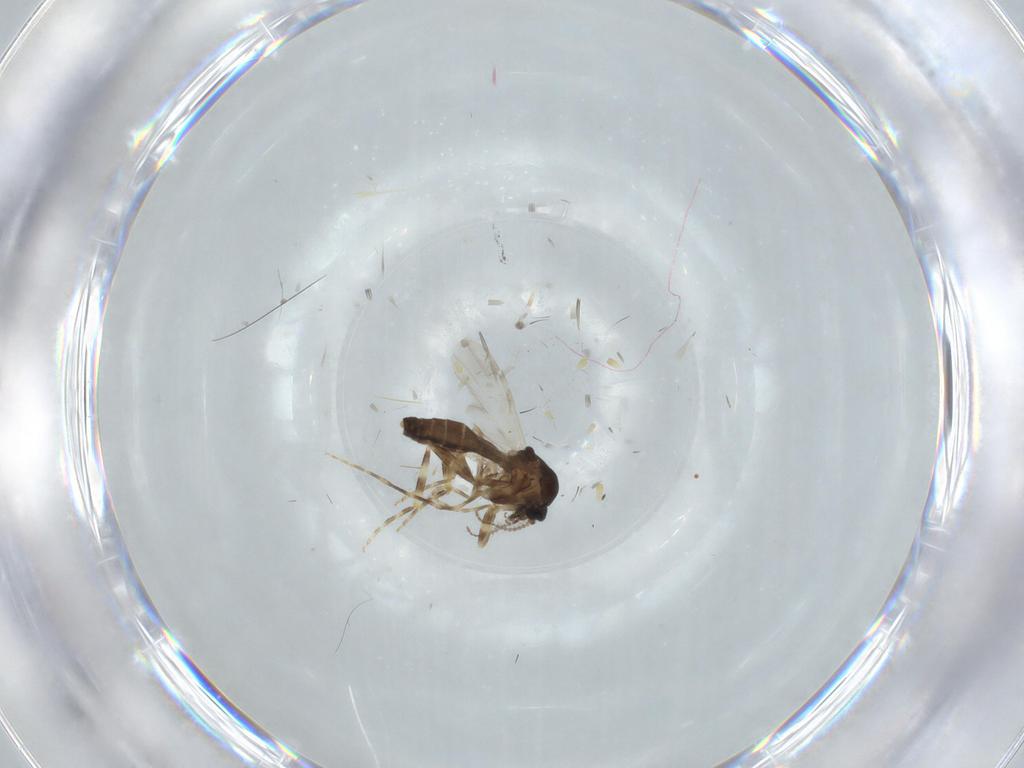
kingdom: Animalia
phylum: Arthropoda
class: Insecta
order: Diptera
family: Ceratopogonidae
